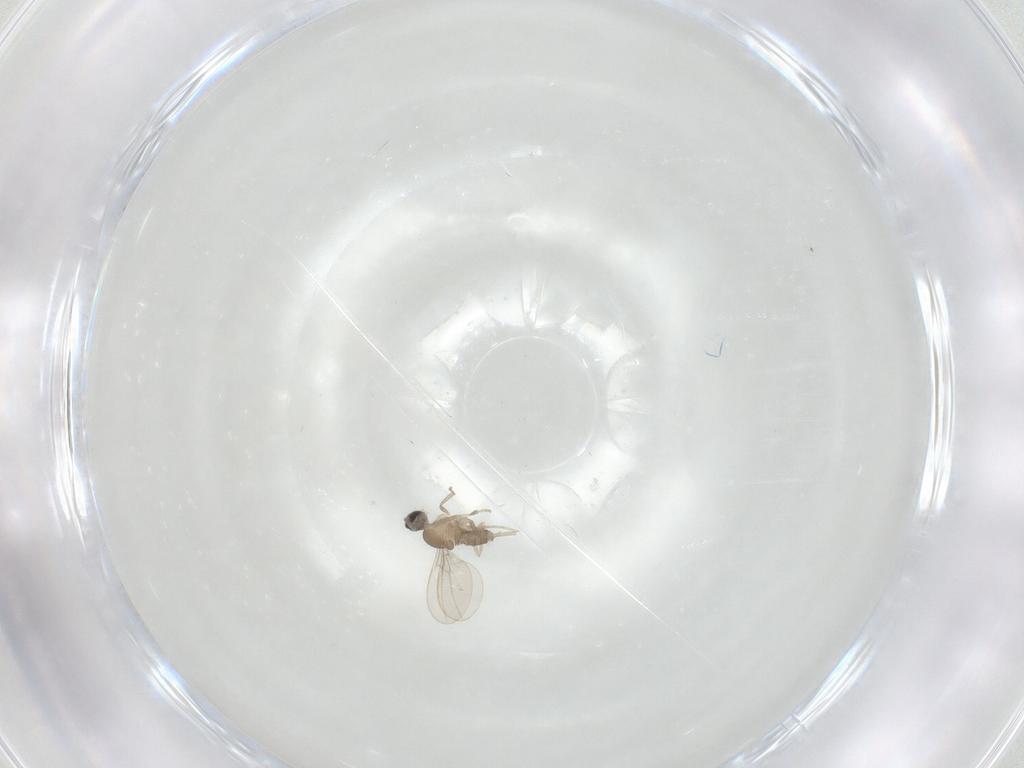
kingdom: Animalia
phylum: Arthropoda
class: Insecta
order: Diptera
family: Cecidomyiidae
